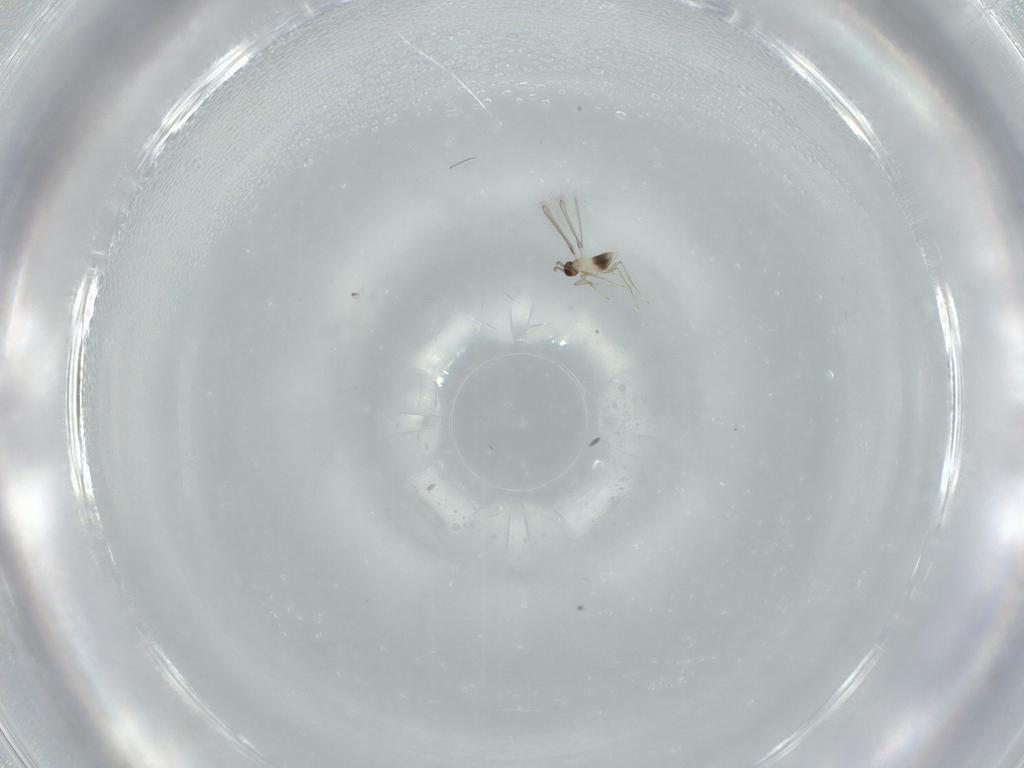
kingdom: Animalia
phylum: Arthropoda
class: Insecta
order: Hymenoptera
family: Mymaridae
